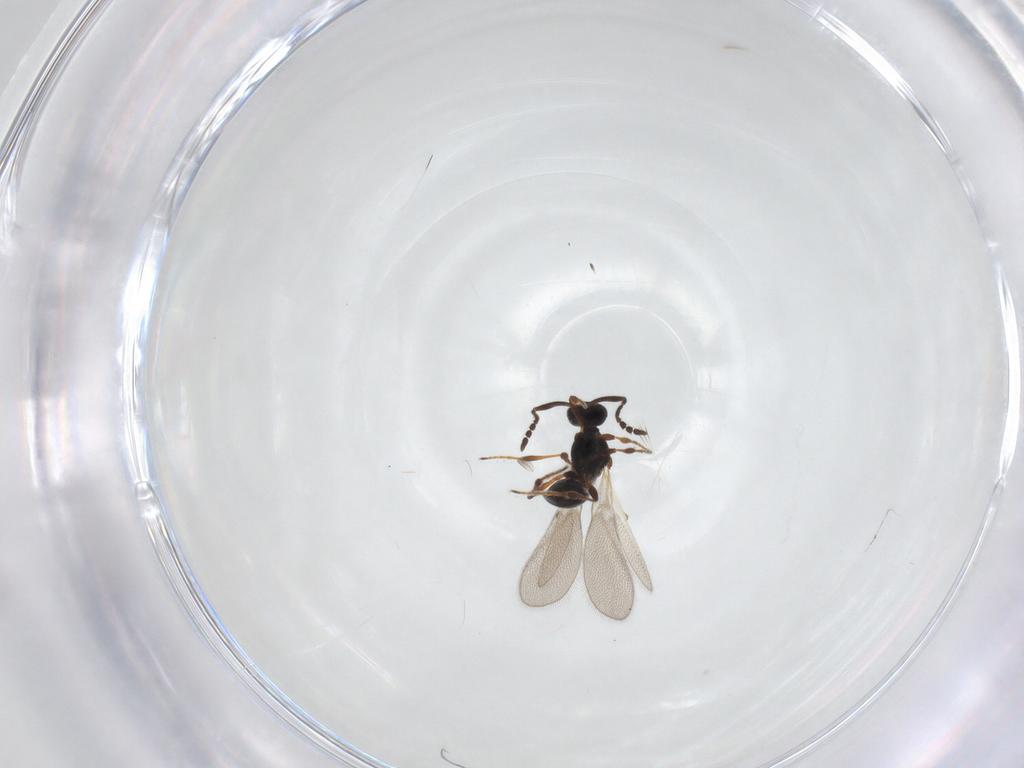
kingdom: Animalia
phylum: Arthropoda
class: Insecta
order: Hymenoptera
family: Platygastridae
